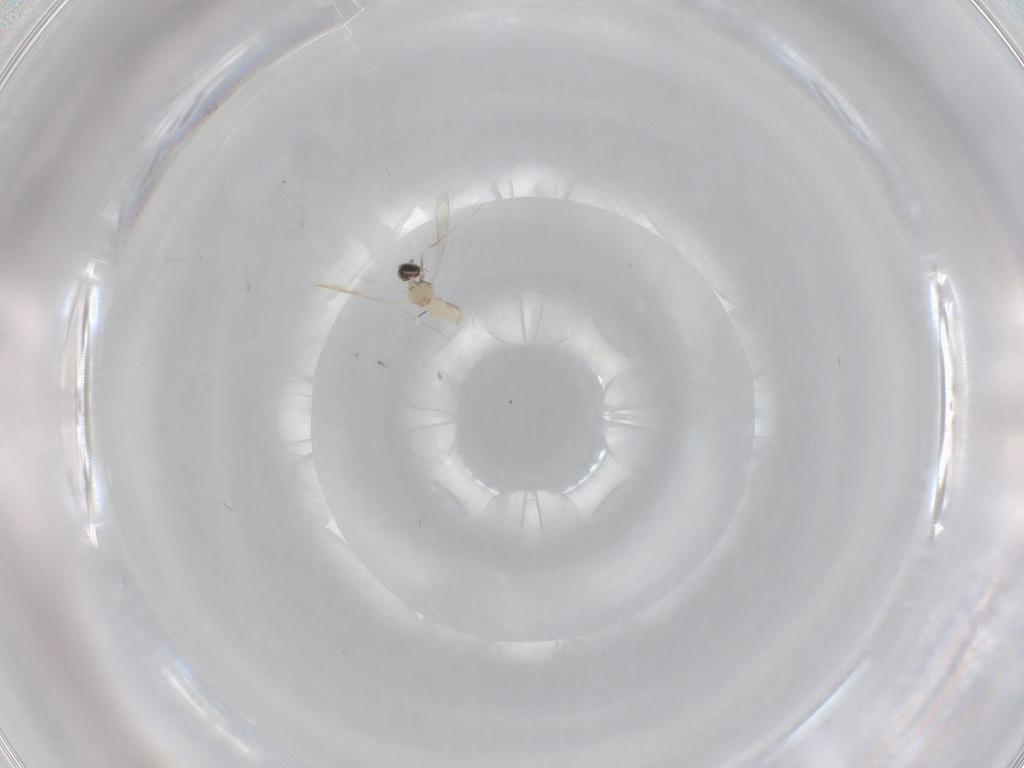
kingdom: Animalia
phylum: Arthropoda
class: Insecta
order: Diptera
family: Cecidomyiidae
